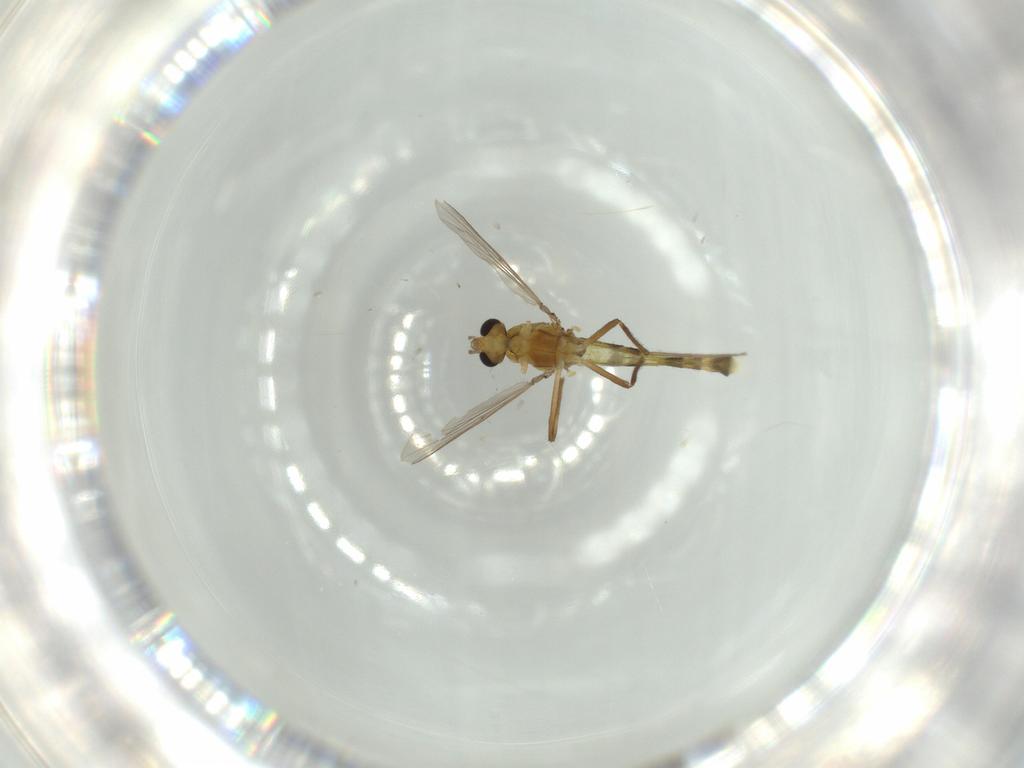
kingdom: Animalia
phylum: Arthropoda
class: Insecta
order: Diptera
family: Chironomidae
